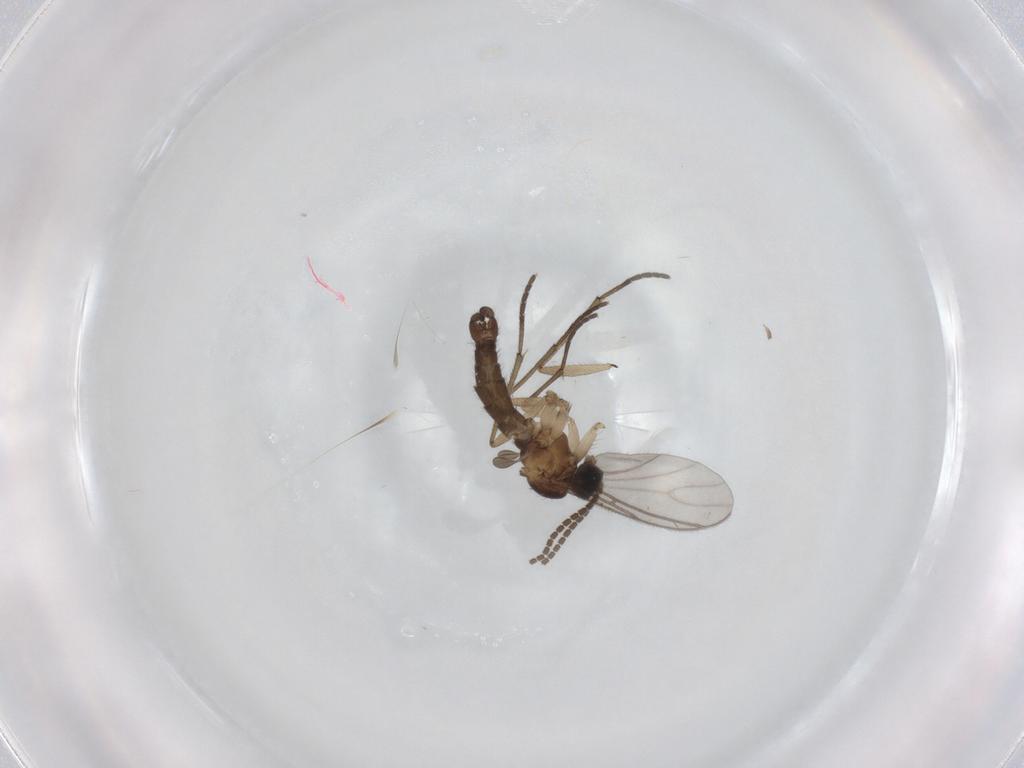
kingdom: Animalia
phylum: Arthropoda
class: Insecta
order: Diptera
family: Sciaridae
